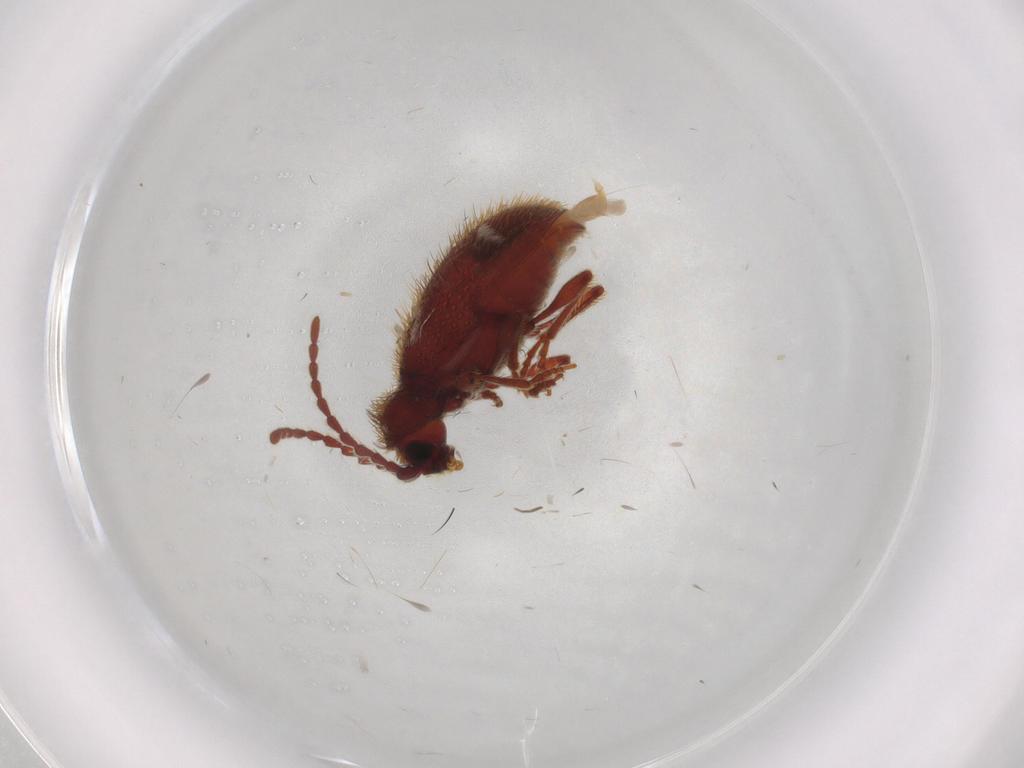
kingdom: Animalia
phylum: Arthropoda
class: Insecta
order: Coleoptera
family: Ptinidae
